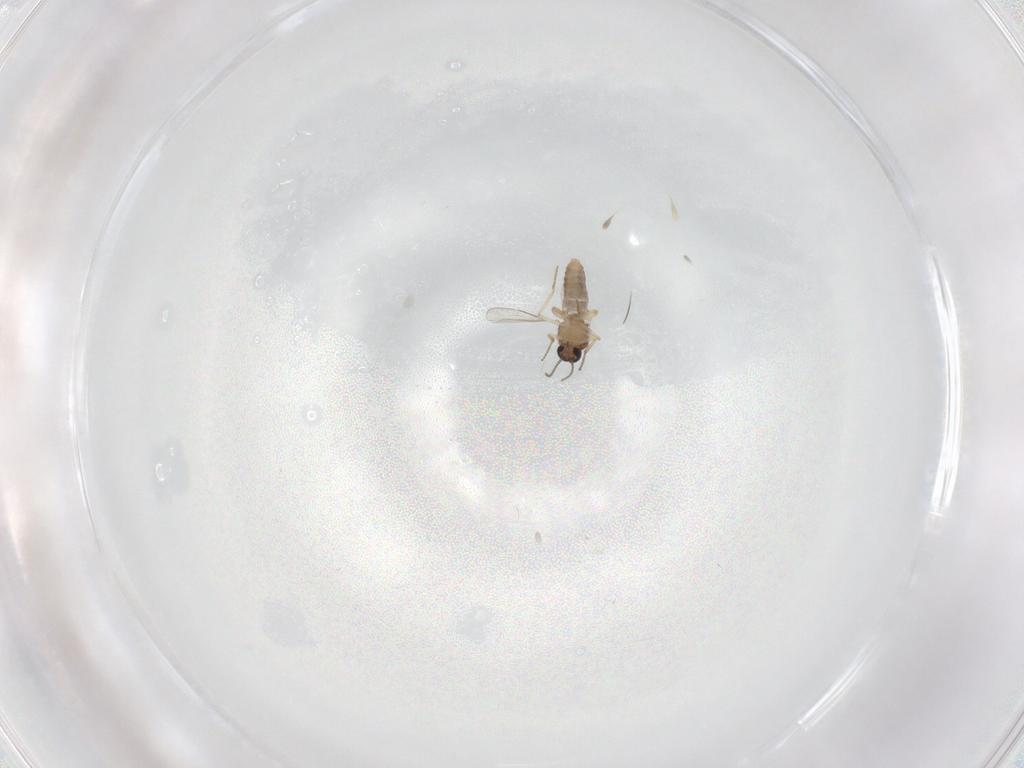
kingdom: Animalia
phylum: Arthropoda
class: Insecta
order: Diptera
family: Ceratopogonidae
